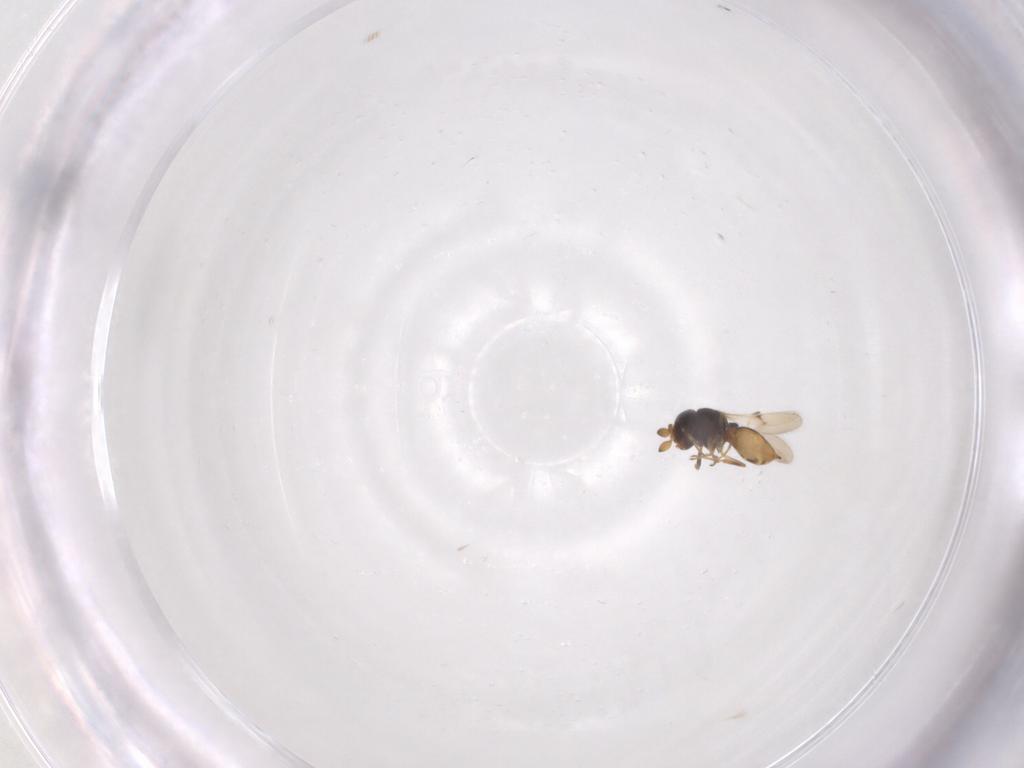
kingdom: Animalia
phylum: Arthropoda
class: Insecta
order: Hymenoptera
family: Scelionidae
